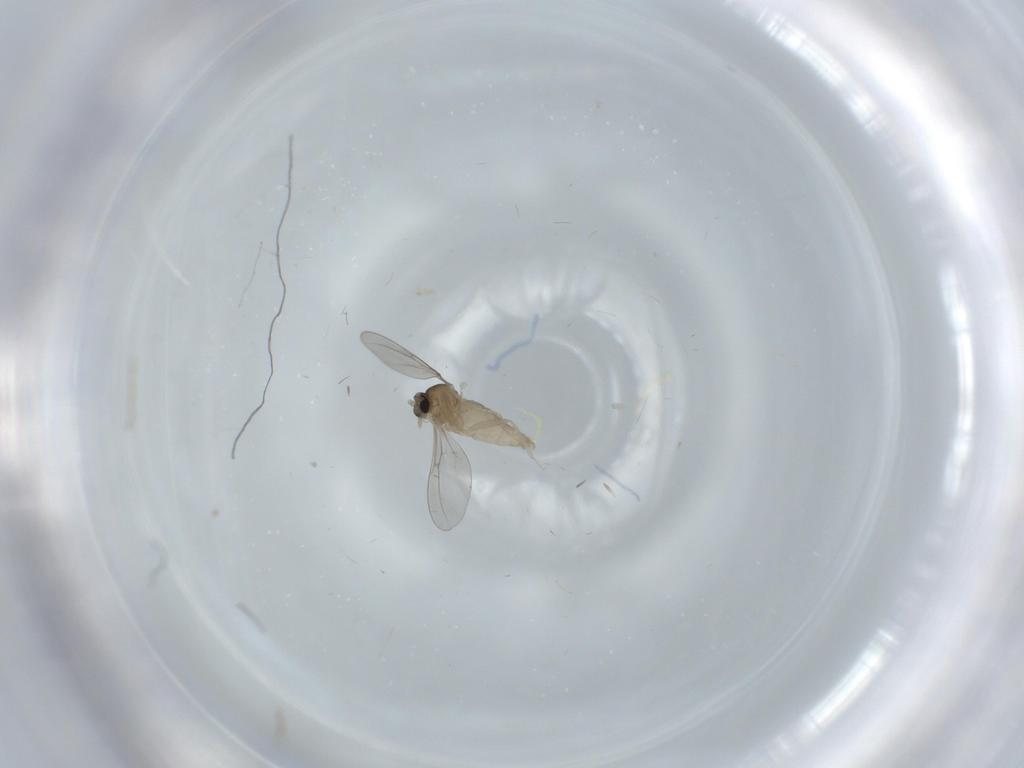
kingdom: Animalia
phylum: Arthropoda
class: Insecta
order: Diptera
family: Cecidomyiidae
